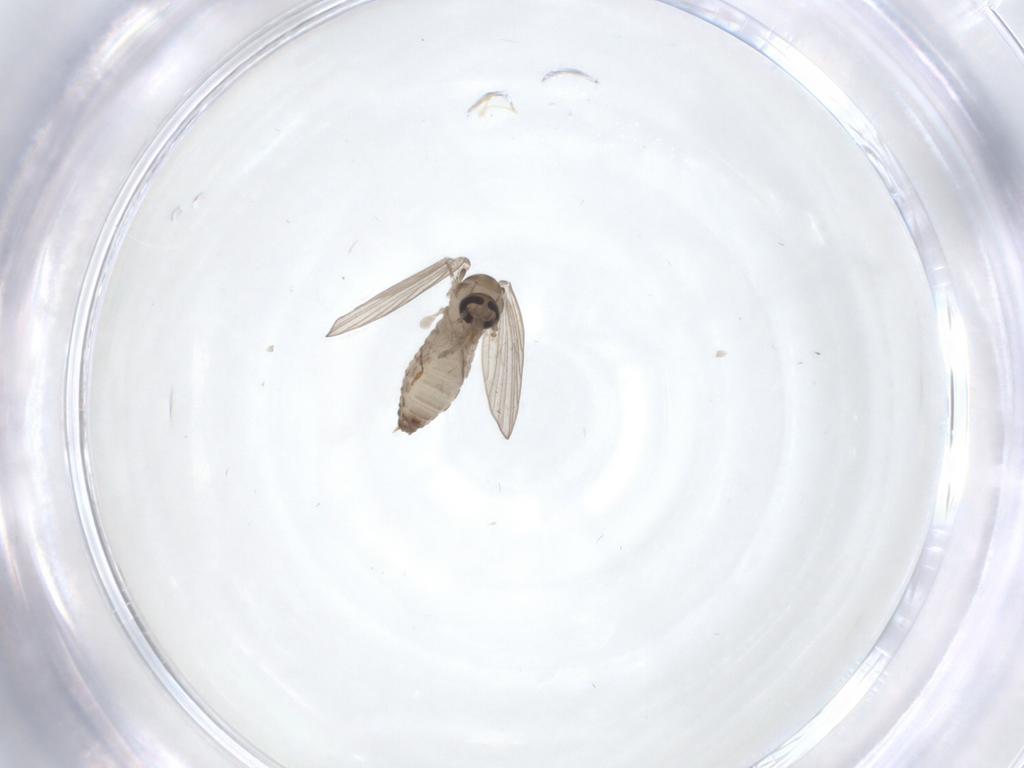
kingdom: Animalia
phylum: Arthropoda
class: Insecta
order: Diptera
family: Psychodidae
